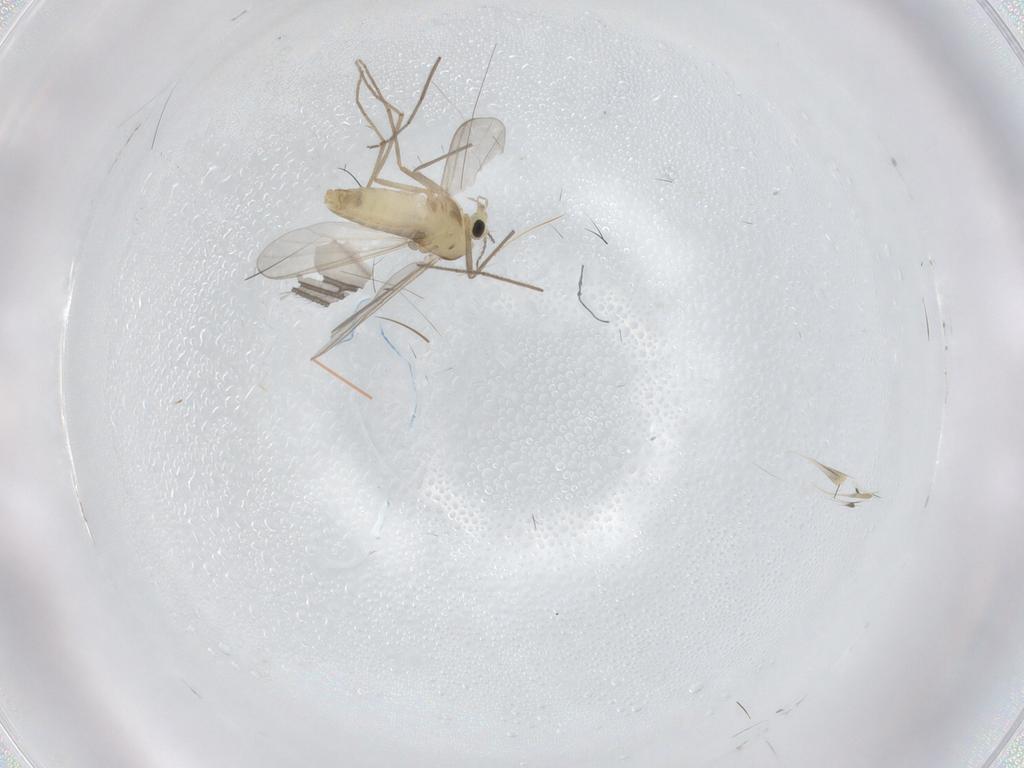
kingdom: Animalia
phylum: Arthropoda
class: Insecta
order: Diptera
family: Chironomidae
